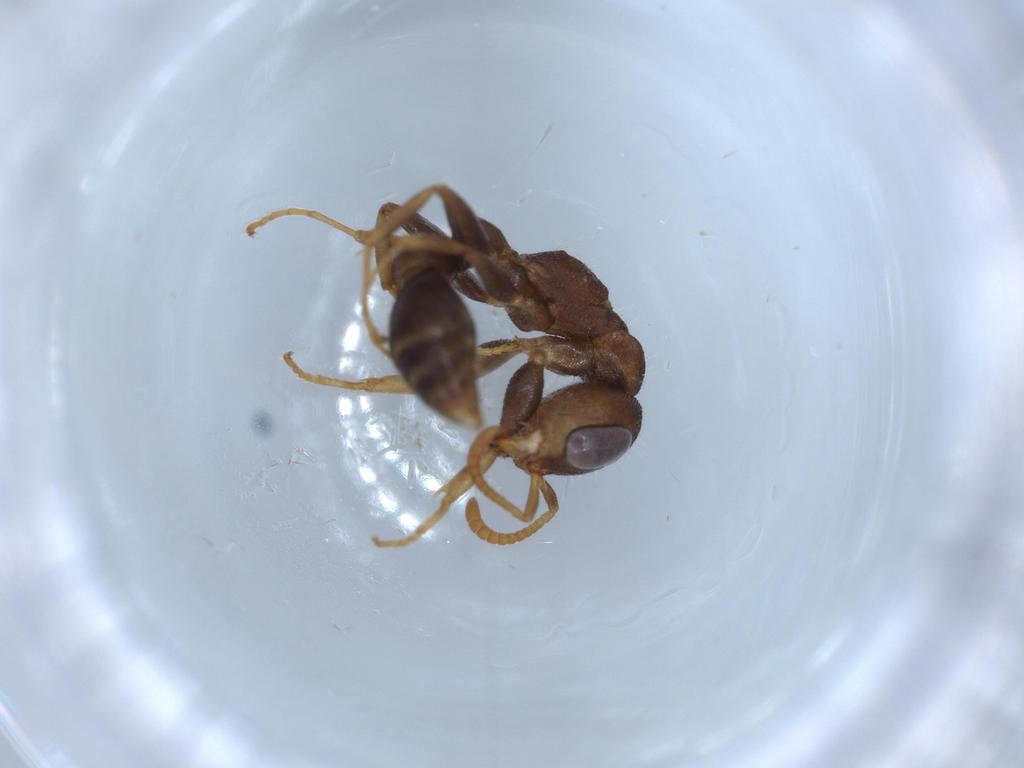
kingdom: Animalia
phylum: Arthropoda
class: Insecta
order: Hymenoptera
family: Formicidae
